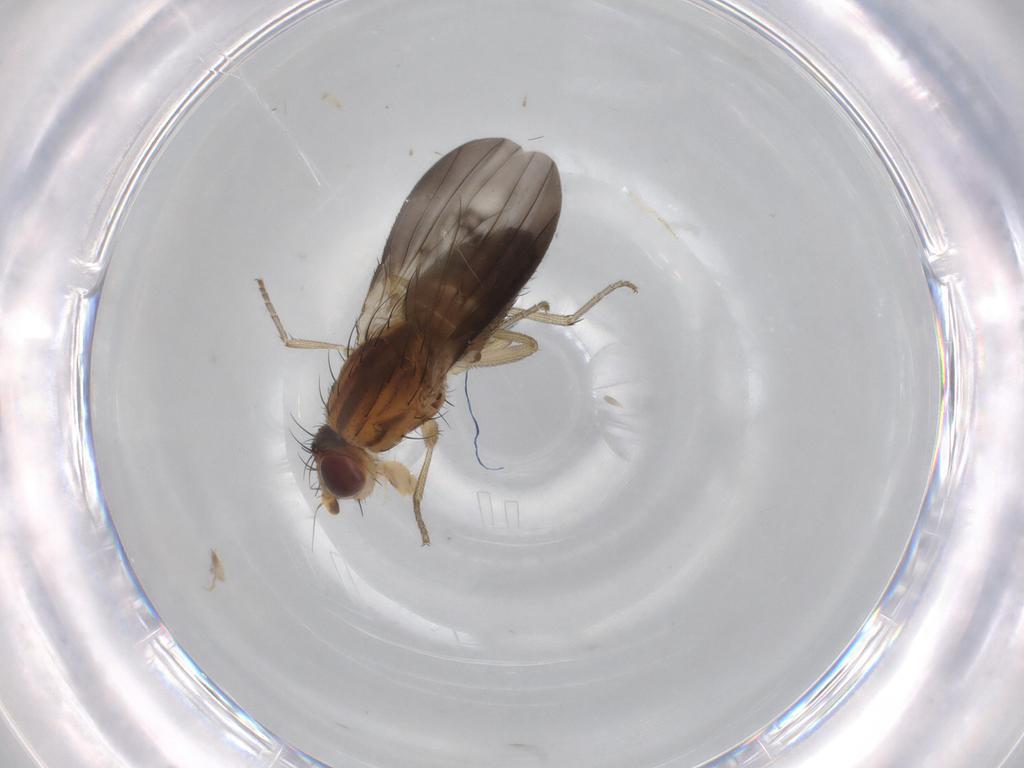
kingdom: Animalia
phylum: Arthropoda
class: Insecta
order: Diptera
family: Heleomyzidae
